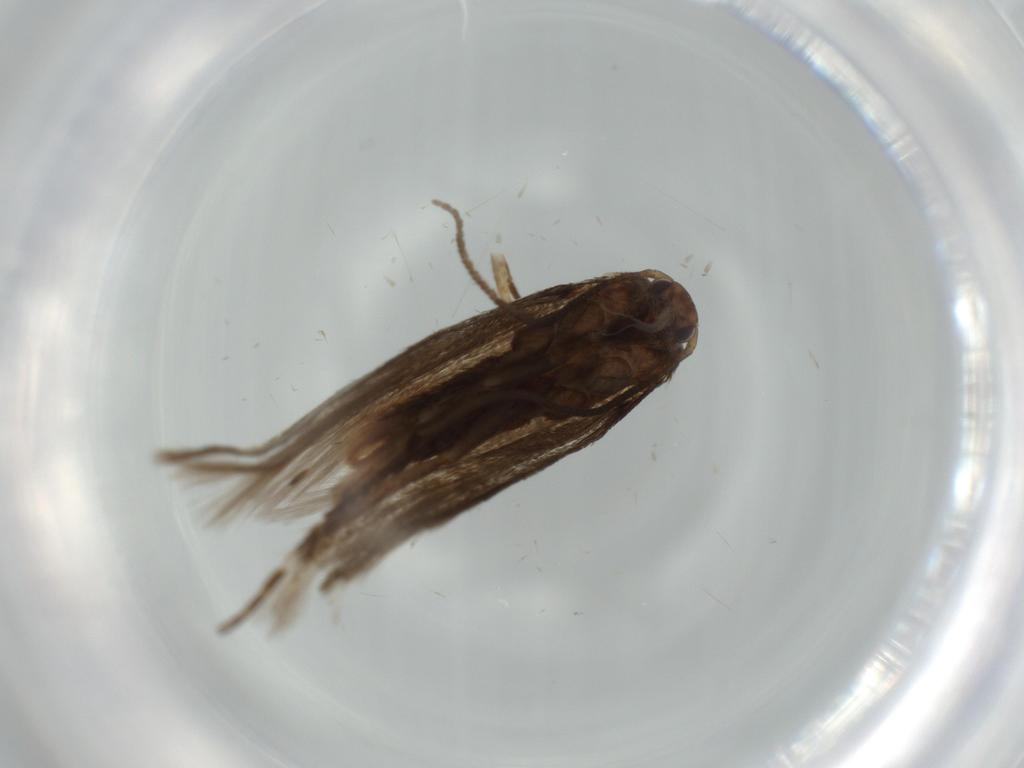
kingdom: Animalia
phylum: Arthropoda
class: Insecta
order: Lepidoptera
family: Elachistidae
